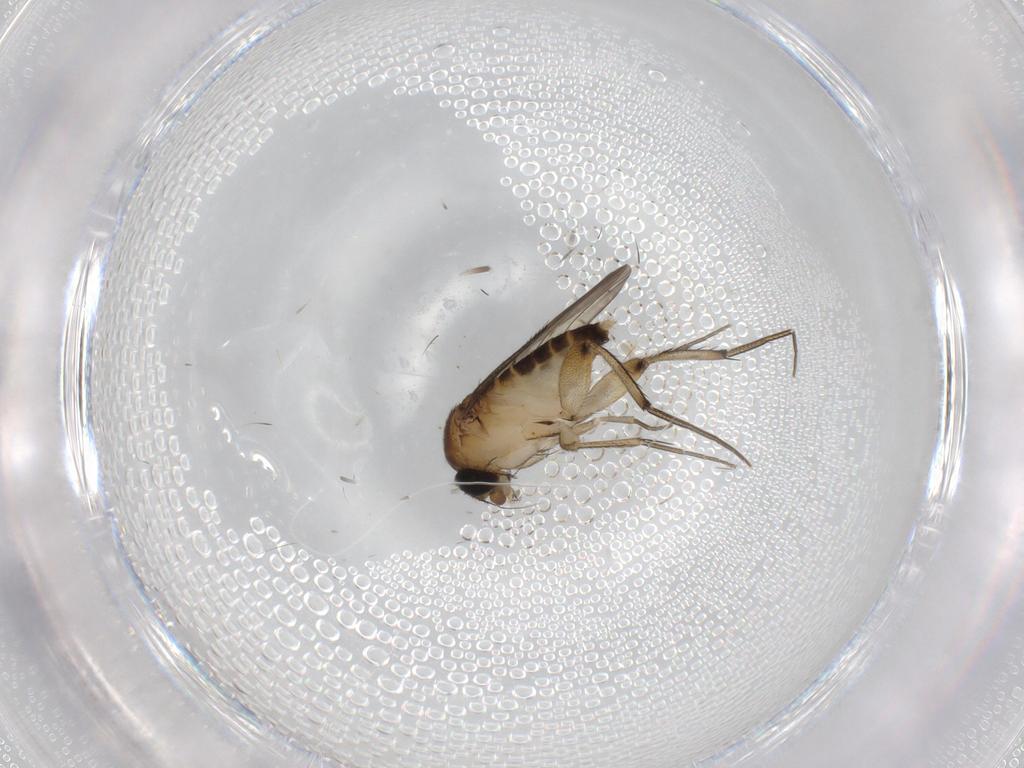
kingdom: Animalia
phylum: Arthropoda
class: Insecta
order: Diptera
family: Phoridae
